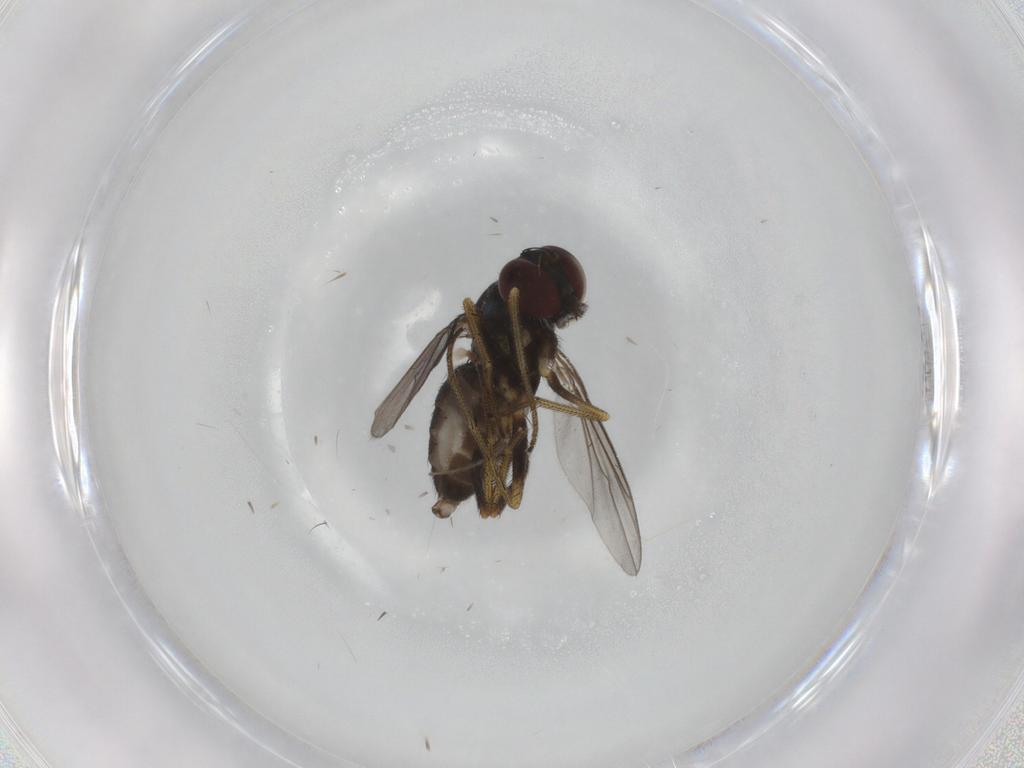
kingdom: Animalia
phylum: Arthropoda
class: Insecta
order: Diptera
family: Dolichopodidae
